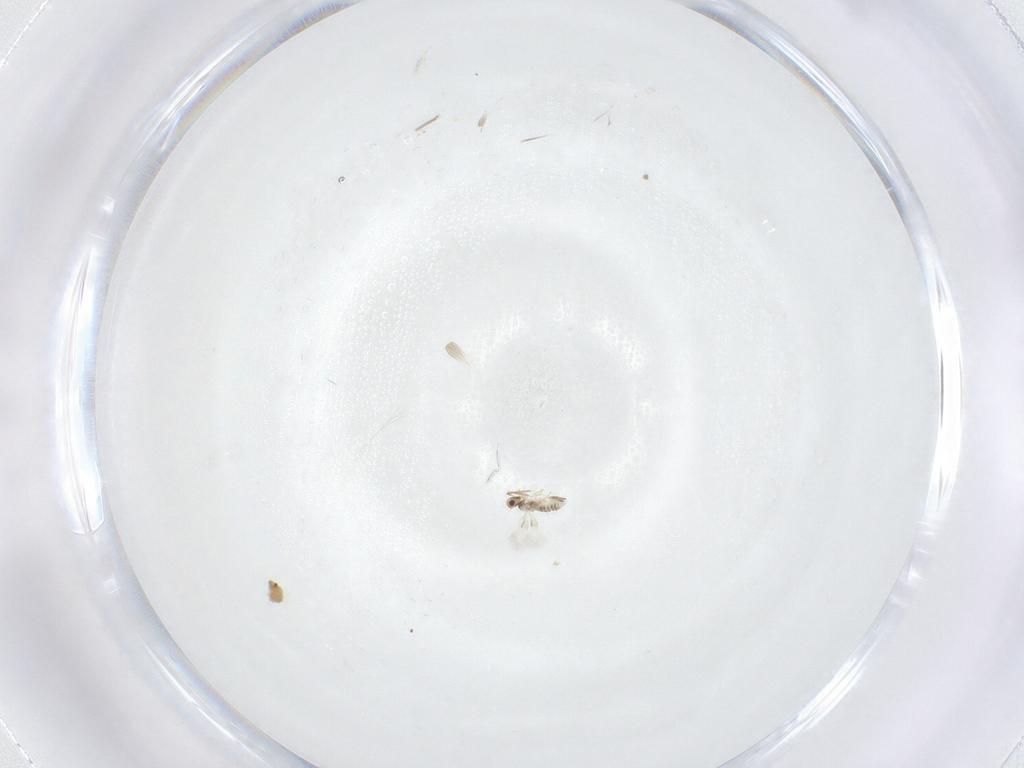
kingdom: Animalia
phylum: Arthropoda
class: Insecta
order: Hymenoptera
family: Aphelinidae
